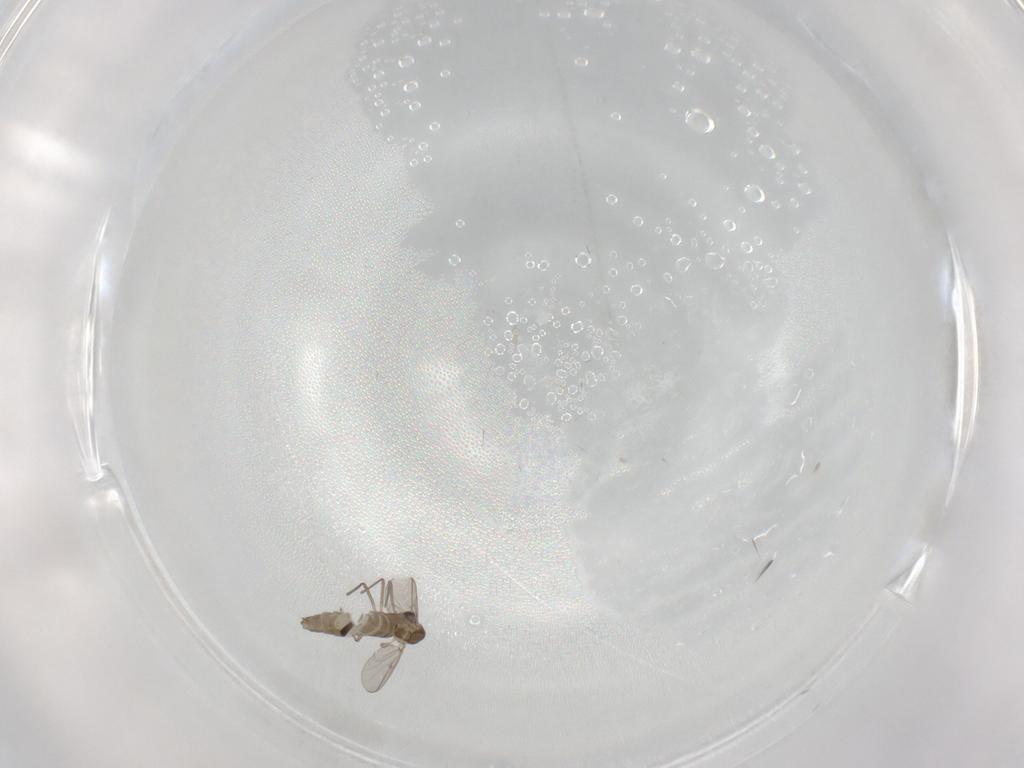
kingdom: Animalia
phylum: Arthropoda
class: Insecta
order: Diptera
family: Chironomidae
